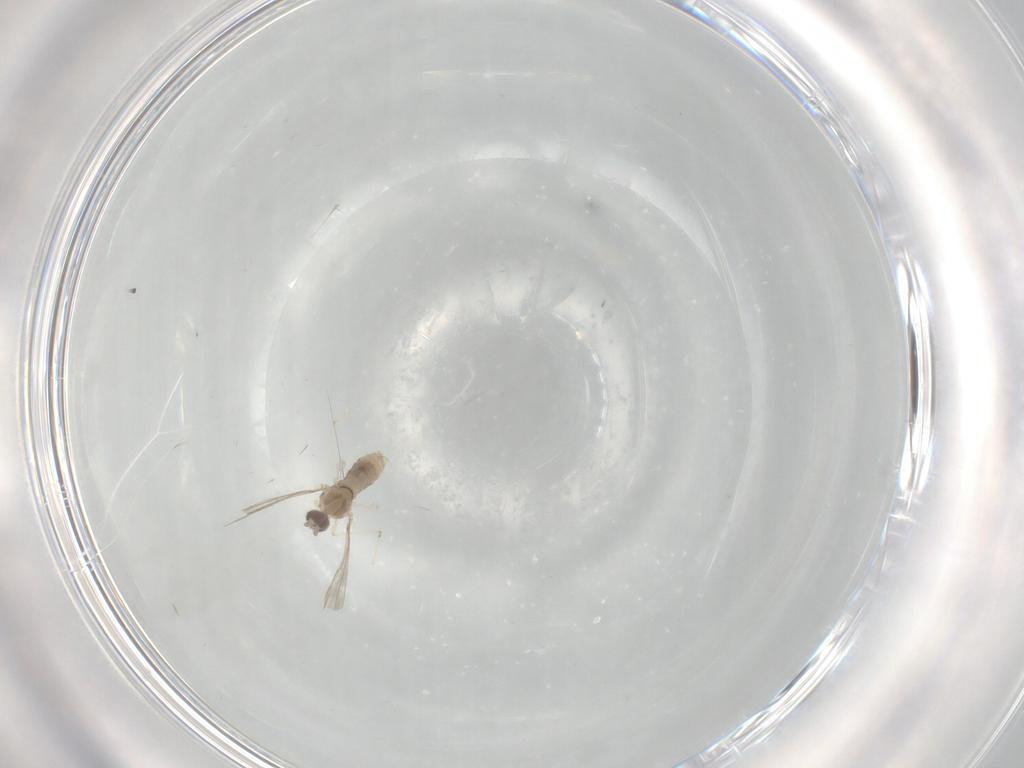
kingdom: Animalia
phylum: Arthropoda
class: Insecta
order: Diptera
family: Cecidomyiidae
